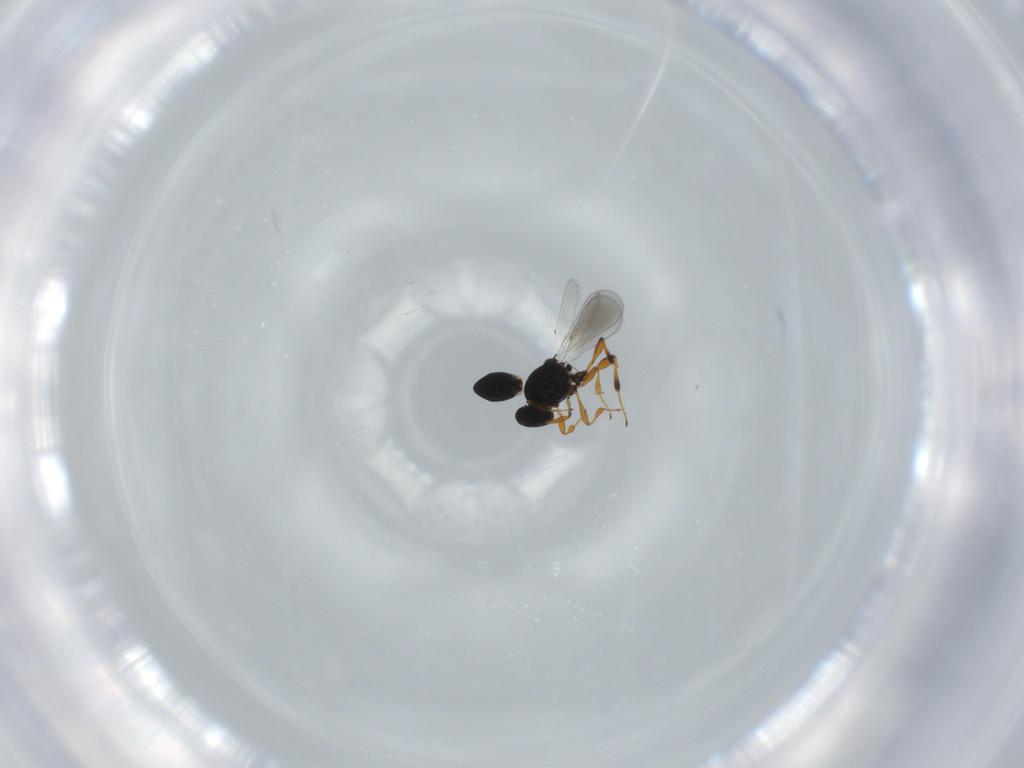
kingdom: Animalia
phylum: Arthropoda
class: Insecta
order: Hymenoptera
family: Platygastridae
